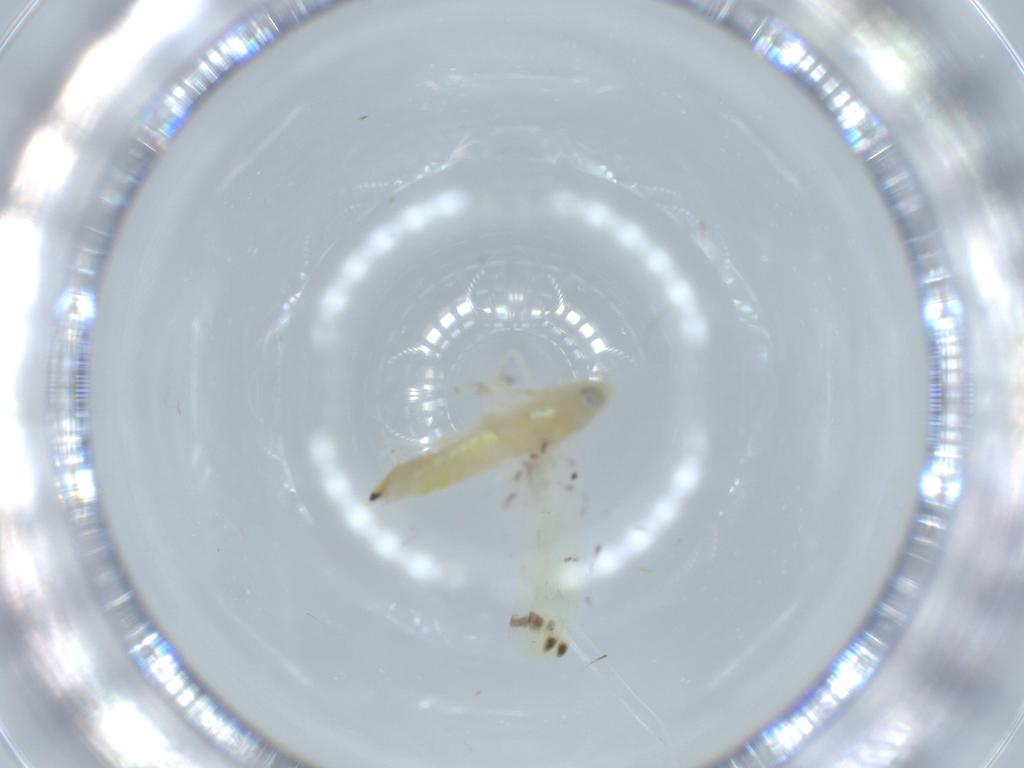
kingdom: Animalia
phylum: Arthropoda
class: Insecta
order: Hemiptera
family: Cicadellidae
